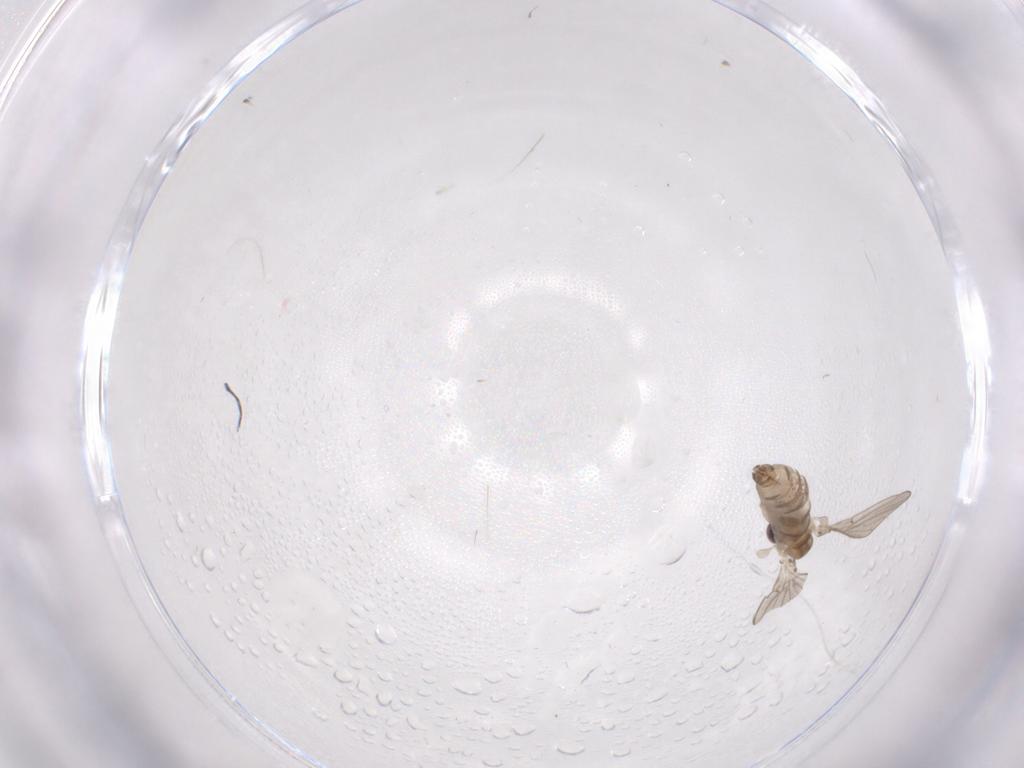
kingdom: Animalia
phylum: Arthropoda
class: Insecta
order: Diptera
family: Cecidomyiidae
